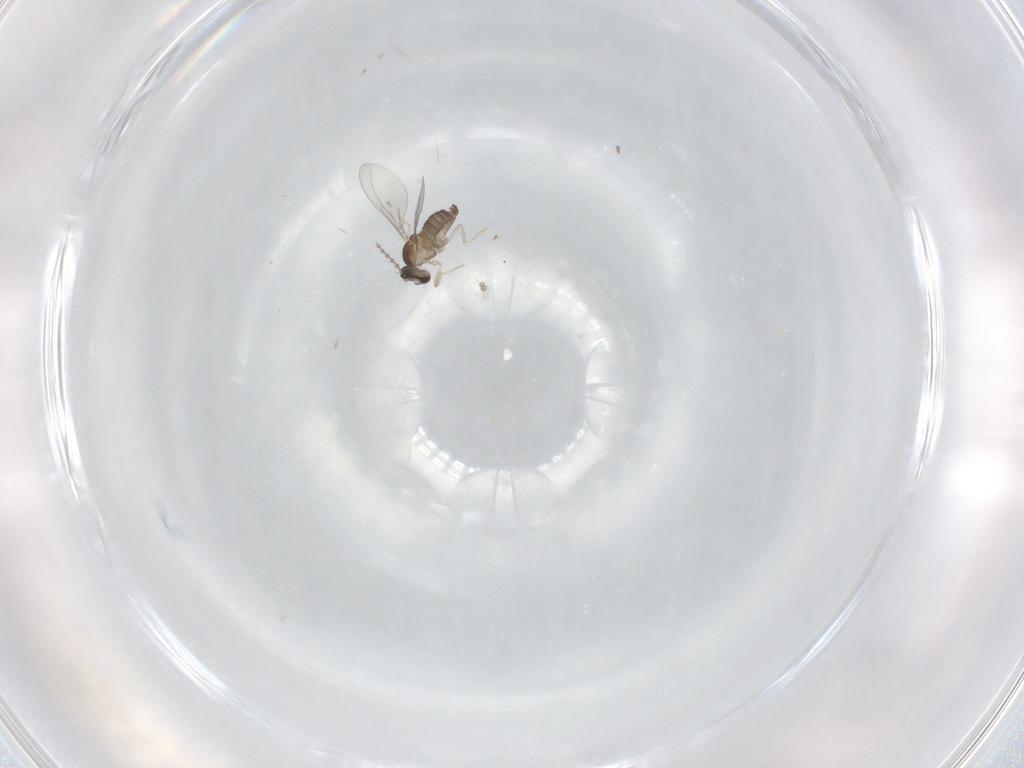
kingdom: Animalia
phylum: Arthropoda
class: Insecta
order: Diptera
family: Cecidomyiidae
